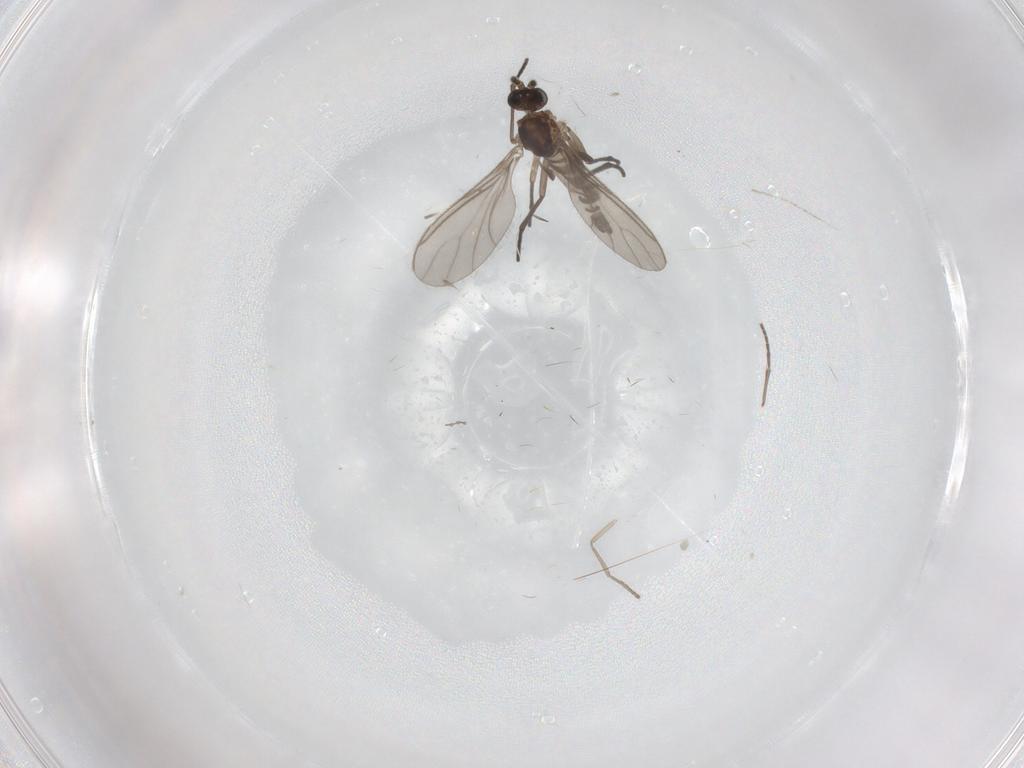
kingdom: Animalia
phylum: Arthropoda
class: Insecta
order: Diptera
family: Sciaridae
